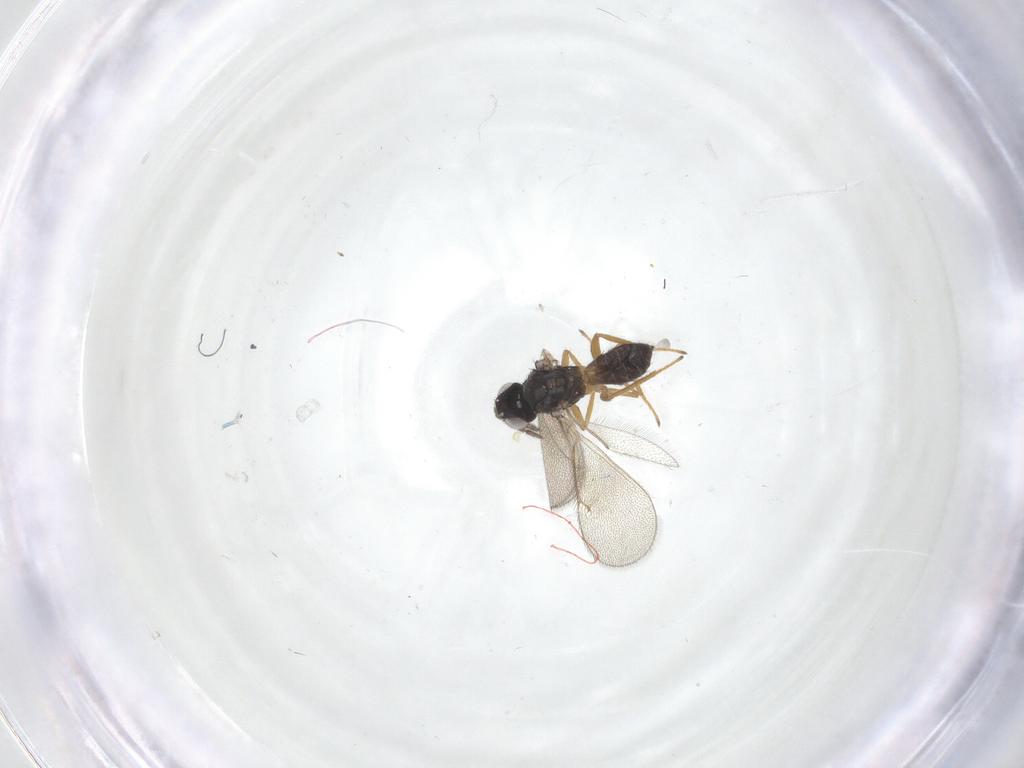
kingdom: Animalia
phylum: Arthropoda
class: Insecta
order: Hymenoptera
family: Eulophidae
